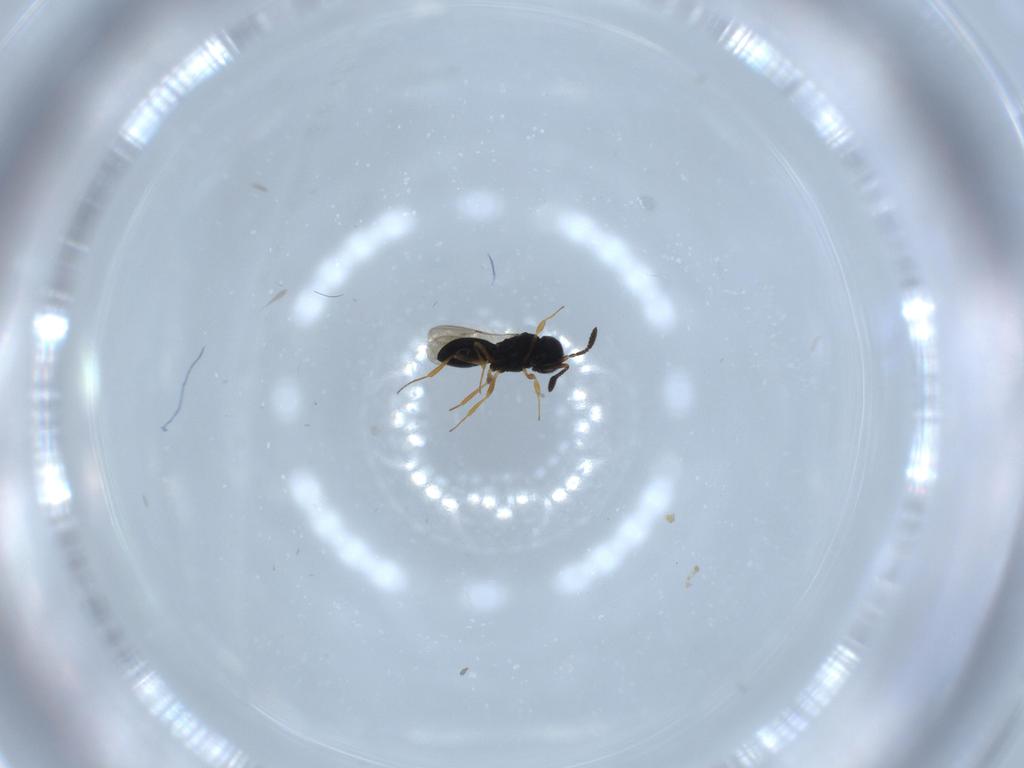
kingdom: Animalia
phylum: Arthropoda
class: Insecta
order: Hymenoptera
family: Scelionidae
